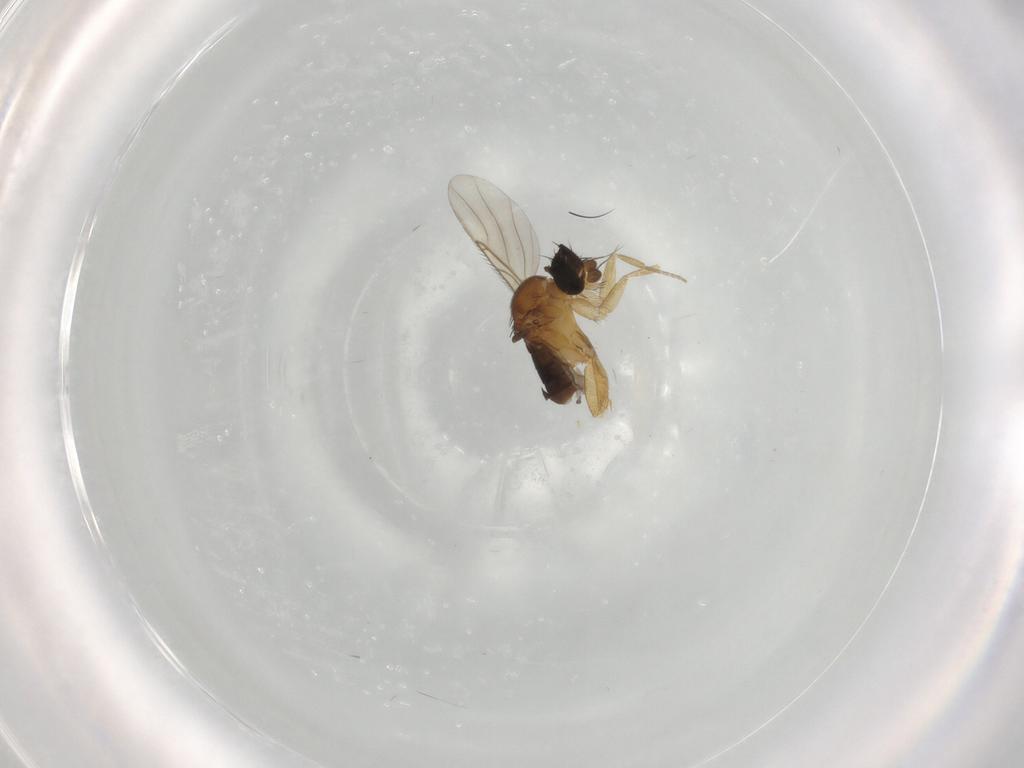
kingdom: Animalia
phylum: Arthropoda
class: Insecta
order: Diptera
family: Phoridae
